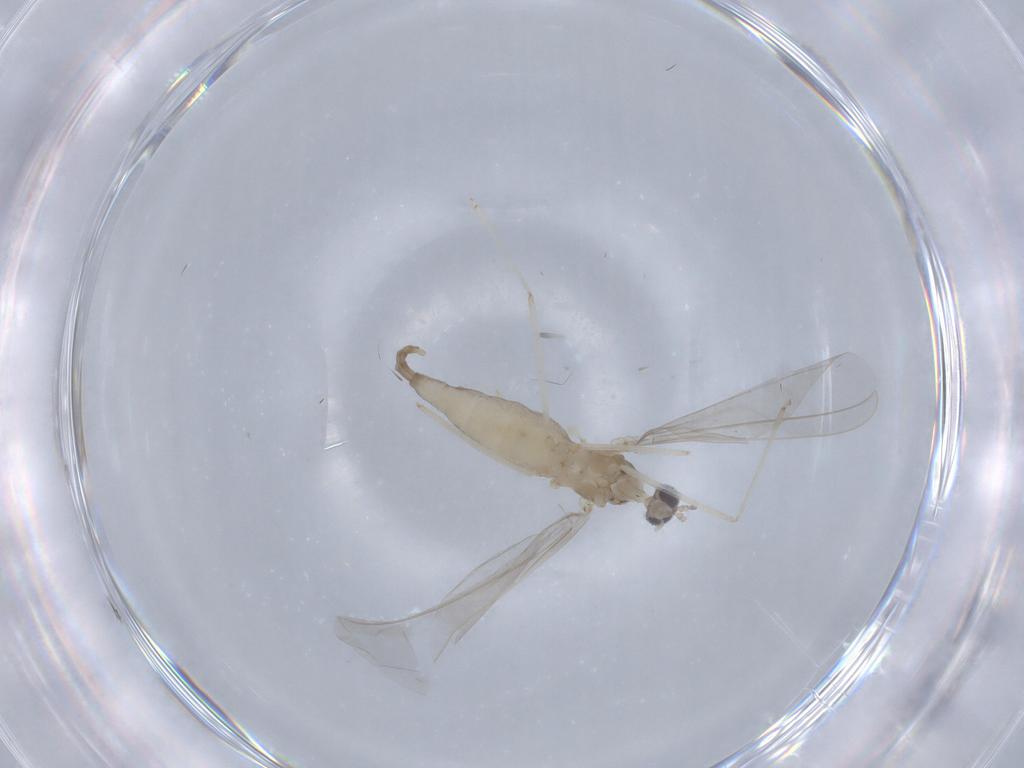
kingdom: Animalia
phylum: Arthropoda
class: Insecta
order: Diptera
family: Cecidomyiidae
